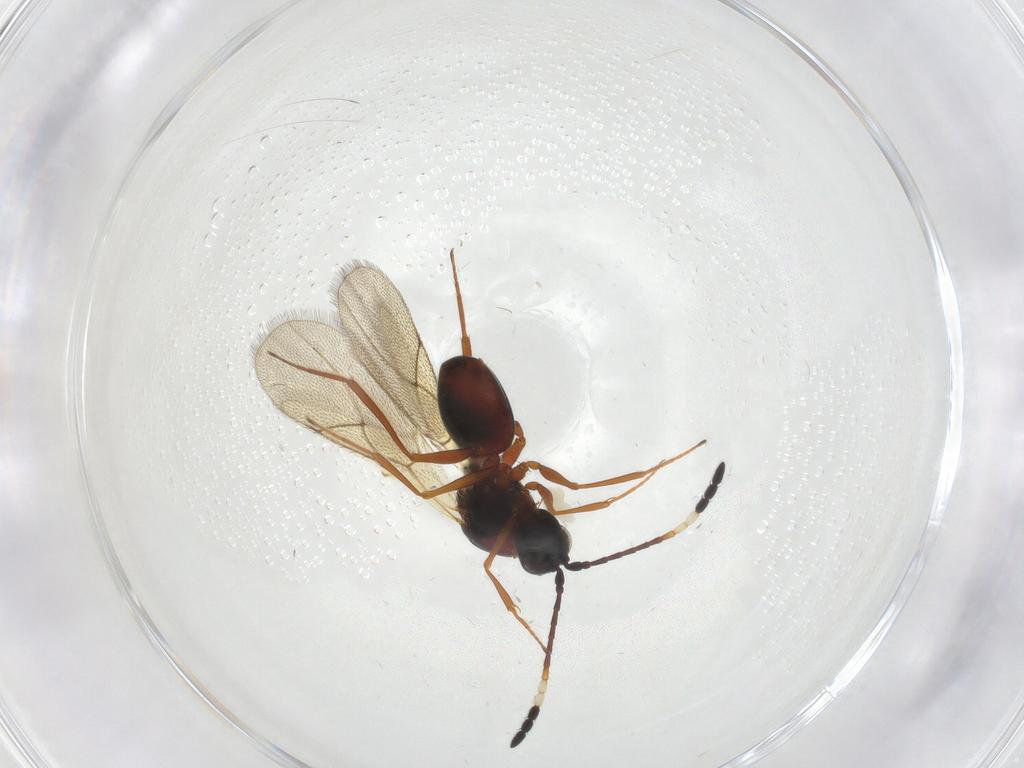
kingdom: Animalia
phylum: Arthropoda
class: Insecta
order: Hymenoptera
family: Figitidae
